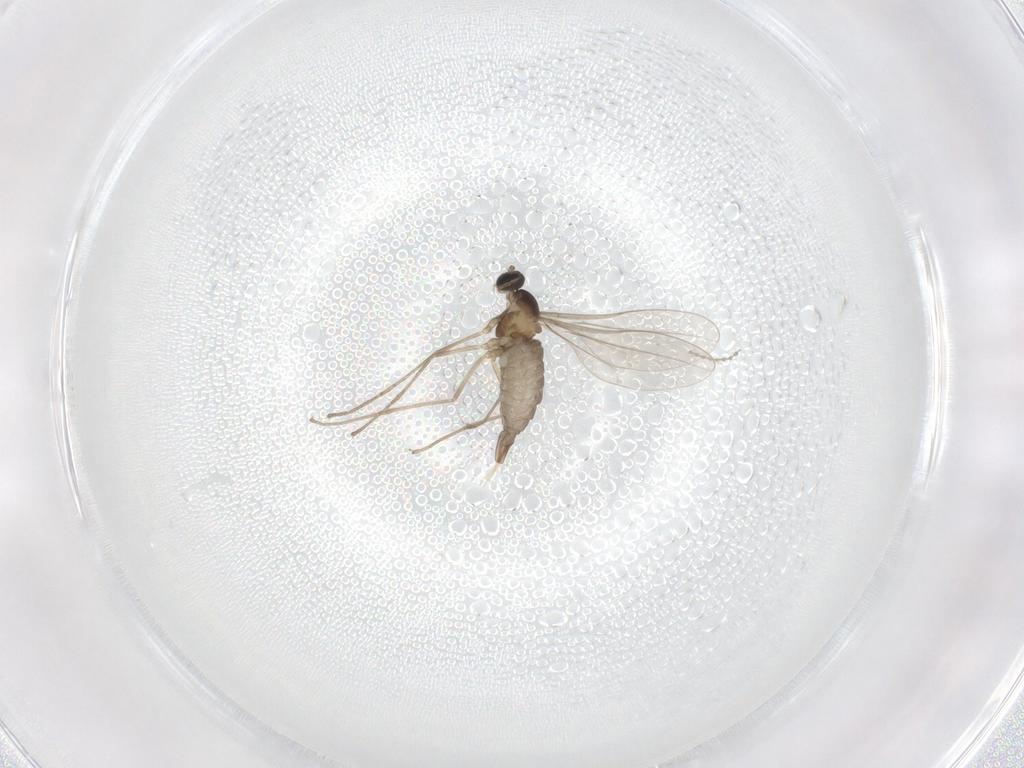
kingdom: Animalia
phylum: Arthropoda
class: Insecta
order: Diptera
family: Cecidomyiidae
